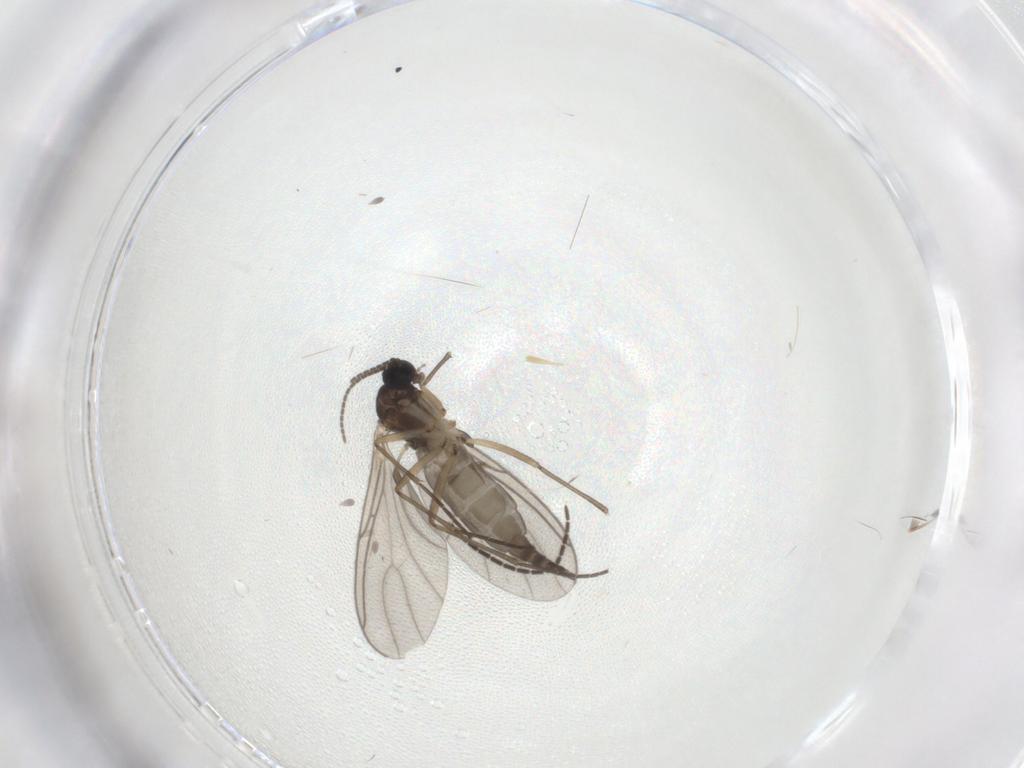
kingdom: Animalia
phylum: Arthropoda
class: Insecta
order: Diptera
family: Sciaridae
